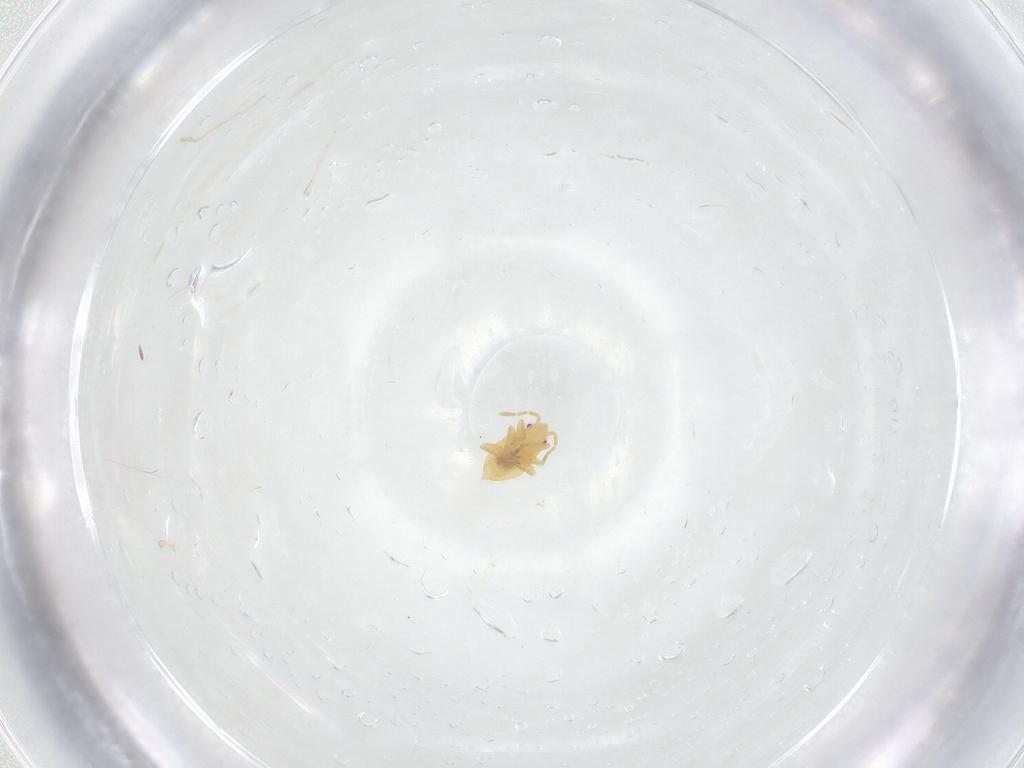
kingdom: Animalia
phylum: Arthropoda
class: Insecta
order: Hemiptera
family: Miridae
